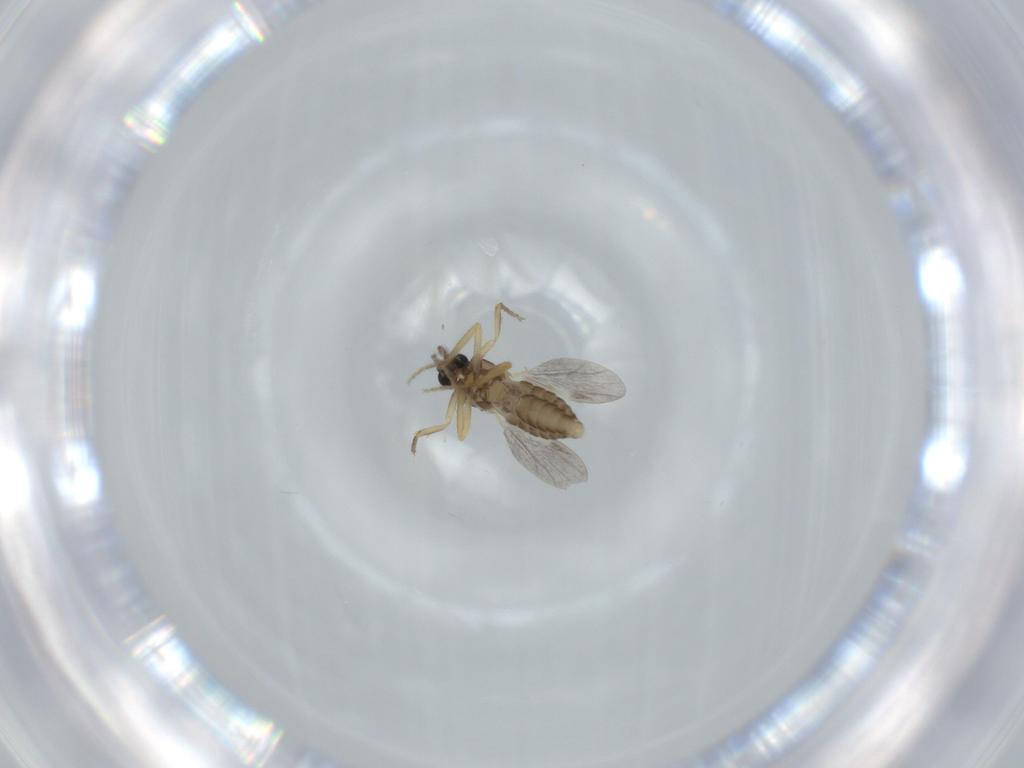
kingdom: Animalia
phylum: Arthropoda
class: Insecta
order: Diptera
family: Ceratopogonidae
